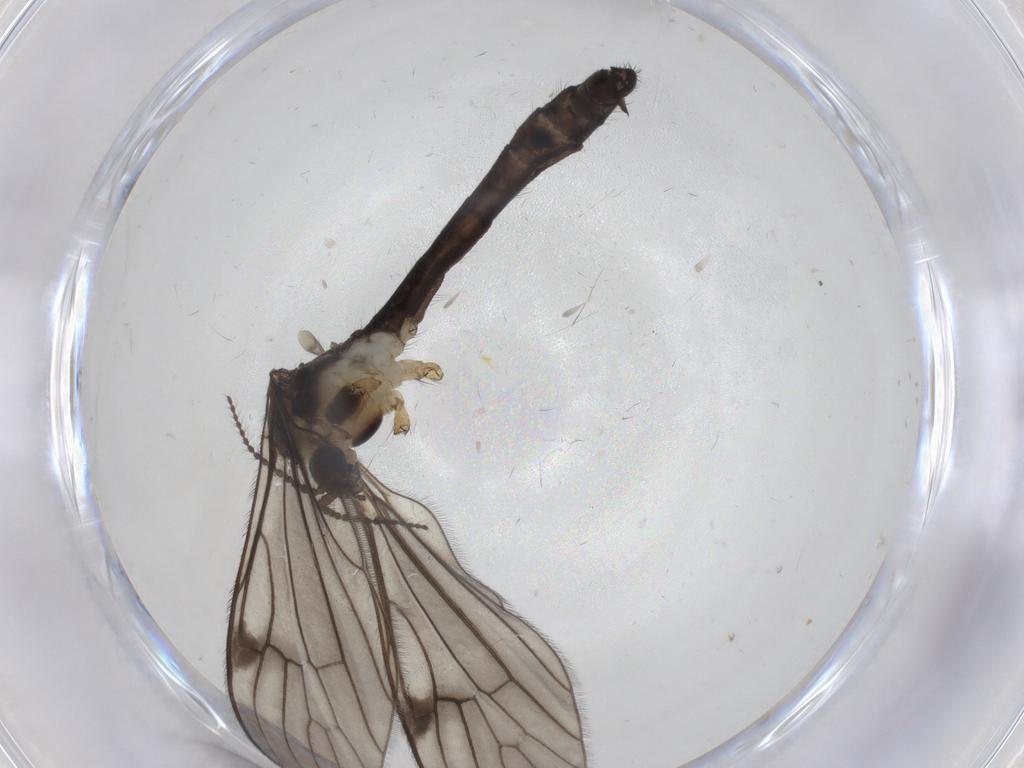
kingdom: Animalia
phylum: Arthropoda
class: Insecta
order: Diptera
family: Limoniidae
